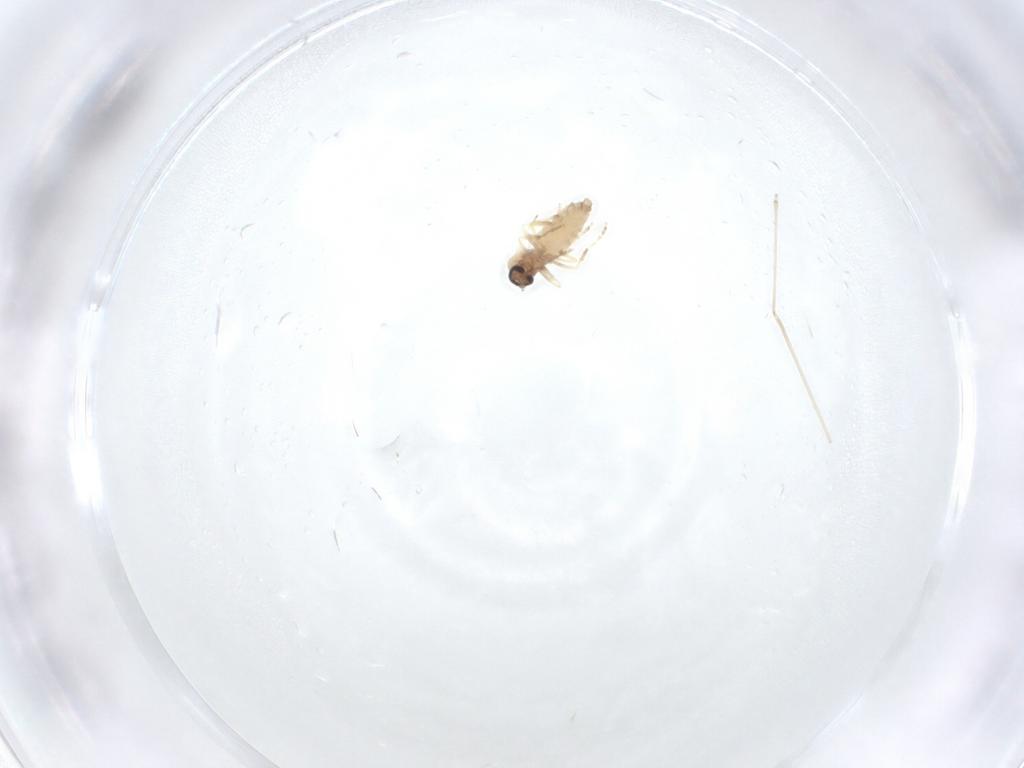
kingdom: Animalia
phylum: Arthropoda
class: Insecta
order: Diptera
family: Ceratopogonidae
